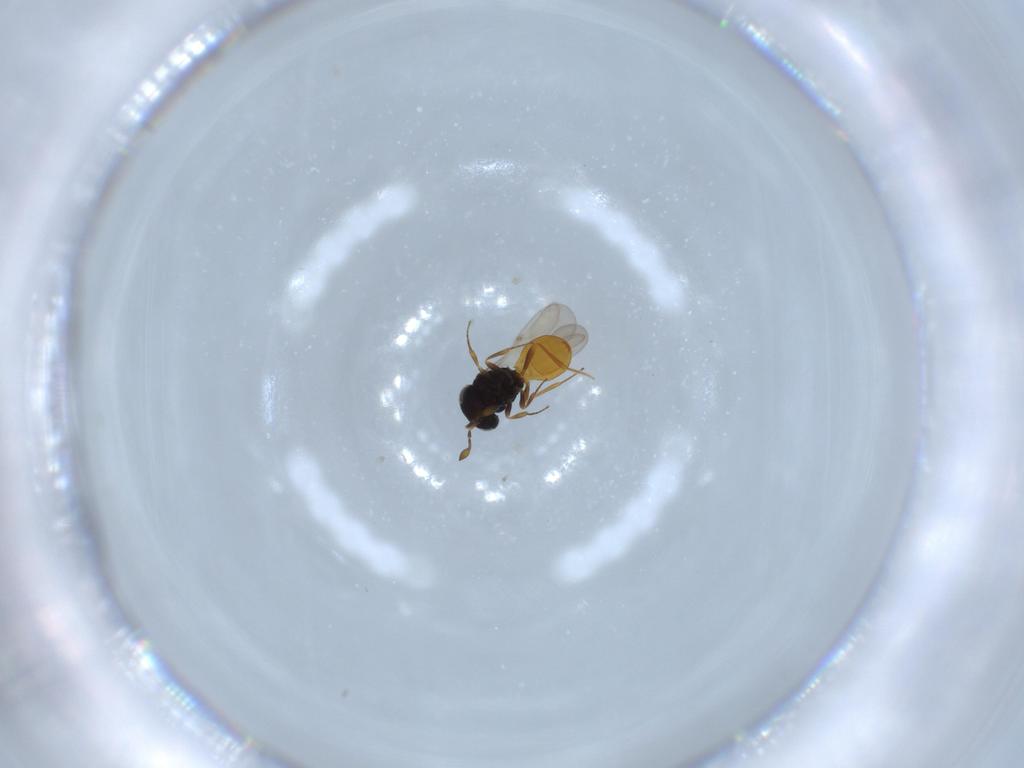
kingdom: Animalia
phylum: Arthropoda
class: Insecta
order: Hymenoptera
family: Scelionidae
